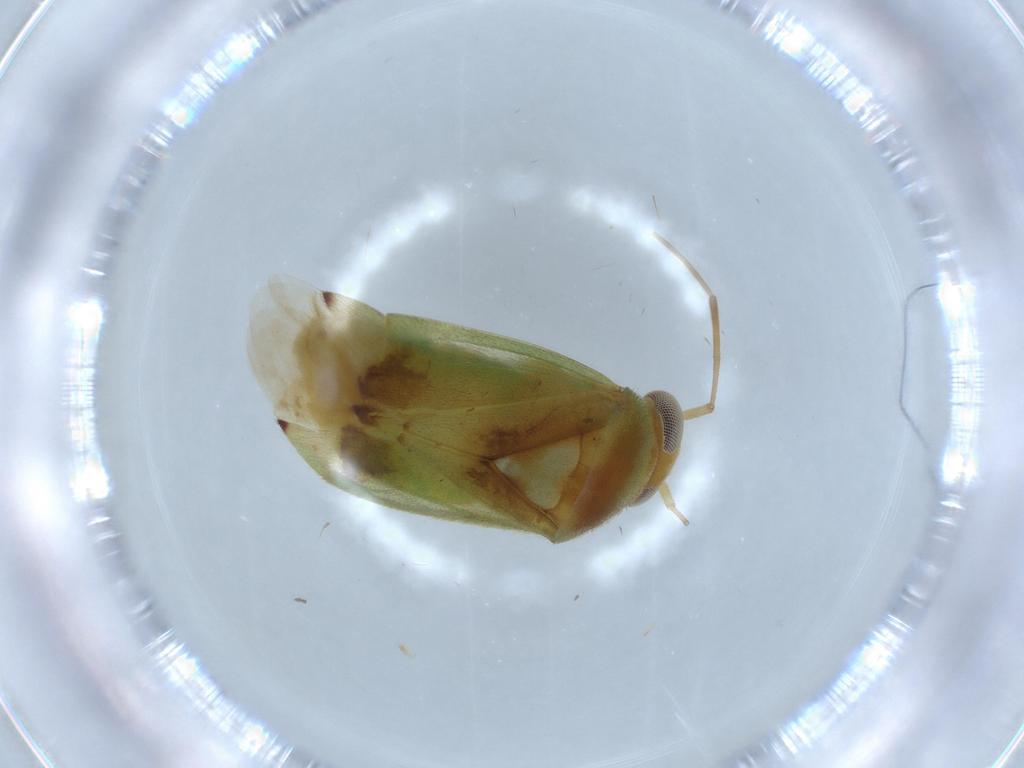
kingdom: Animalia
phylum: Arthropoda
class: Insecta
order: Hemiptera
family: Miridae
